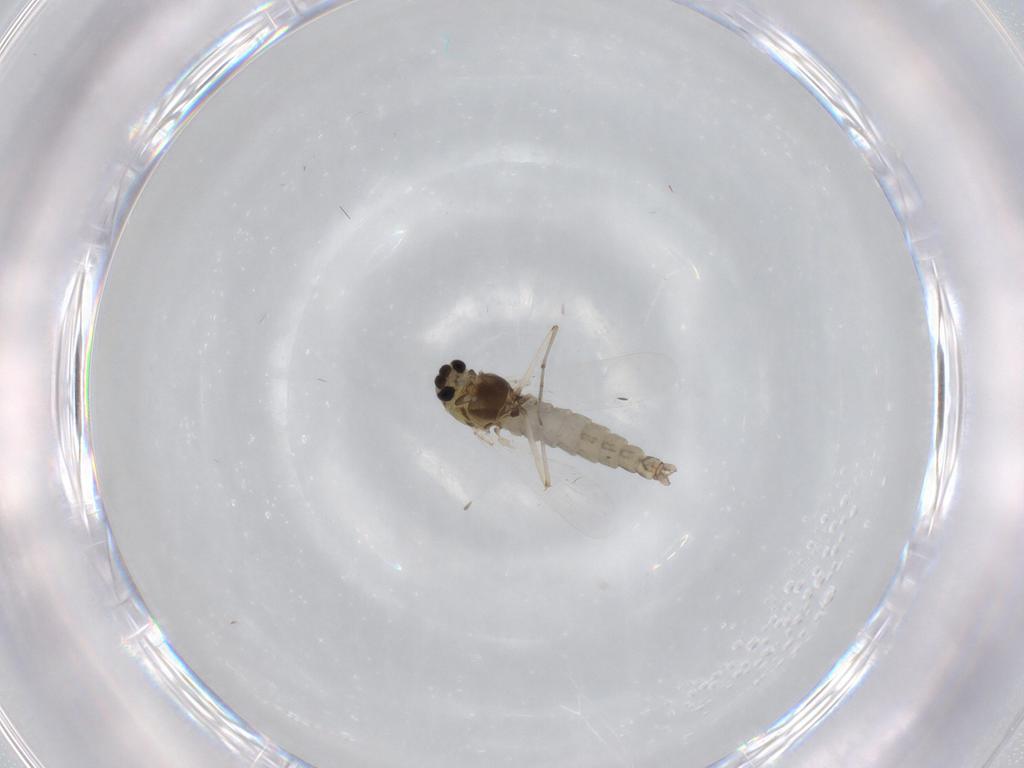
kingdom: Animalia
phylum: Arthropoda
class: Insecta
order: Diptera
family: Chironomidae
